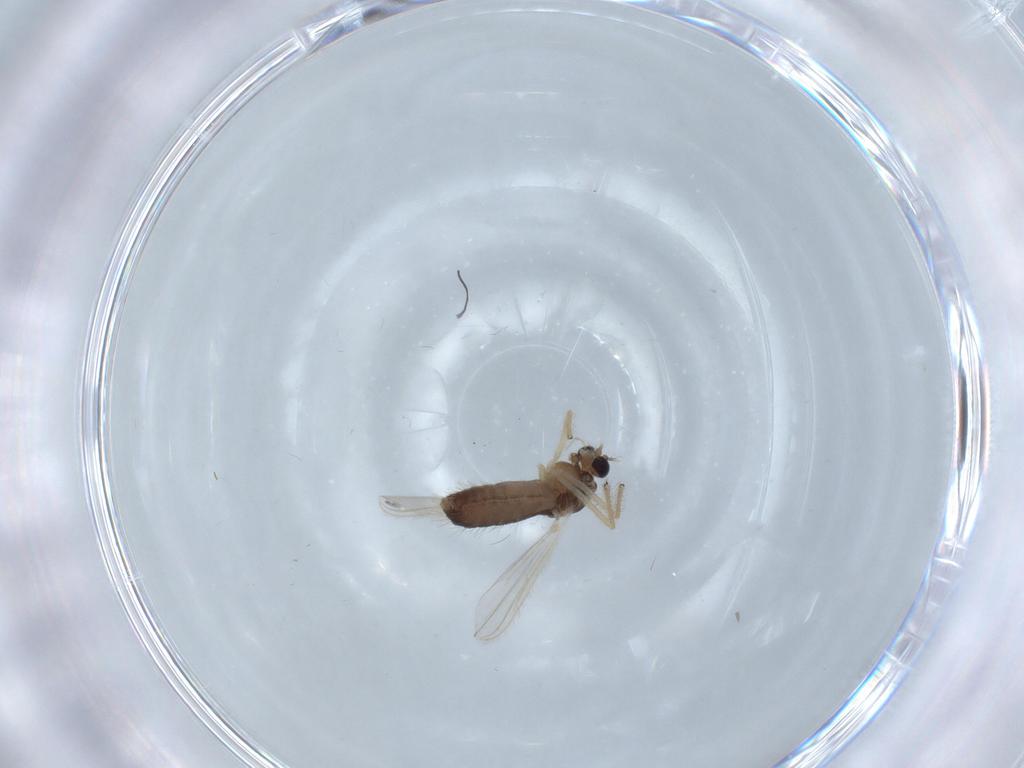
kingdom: Animalia
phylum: Arthropoda
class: Insecta
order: Diptera
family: Chironomidae
